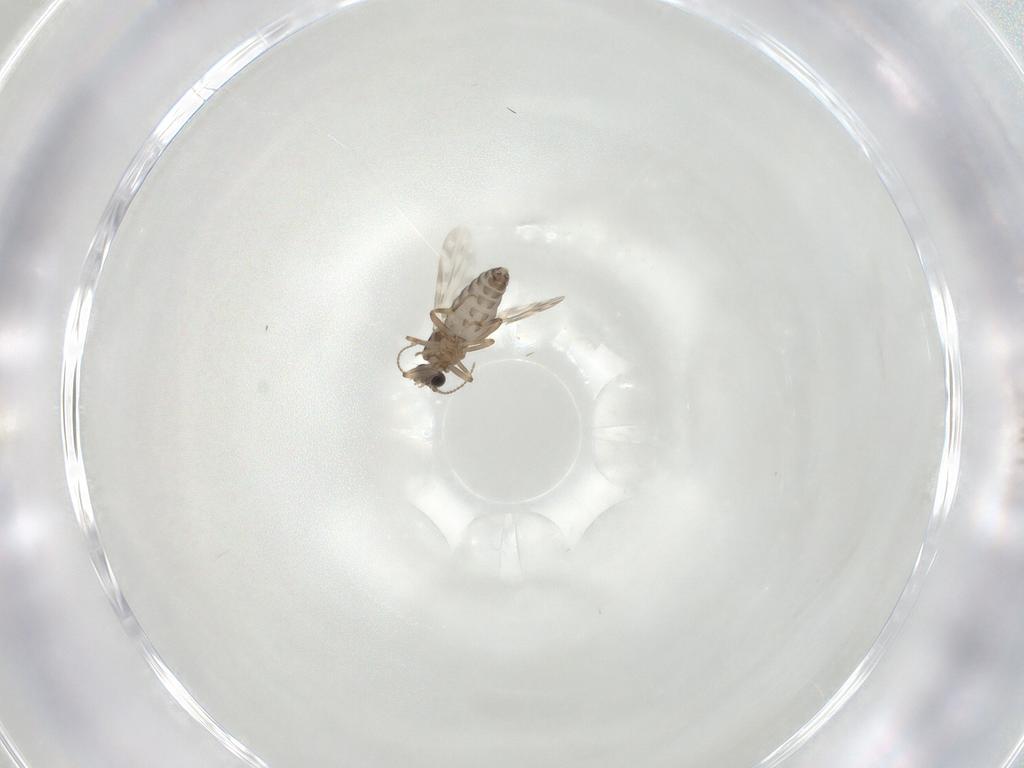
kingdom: Animalia
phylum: Arthropoda
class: Insecta
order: Diptera
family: Ceratopogonidae
